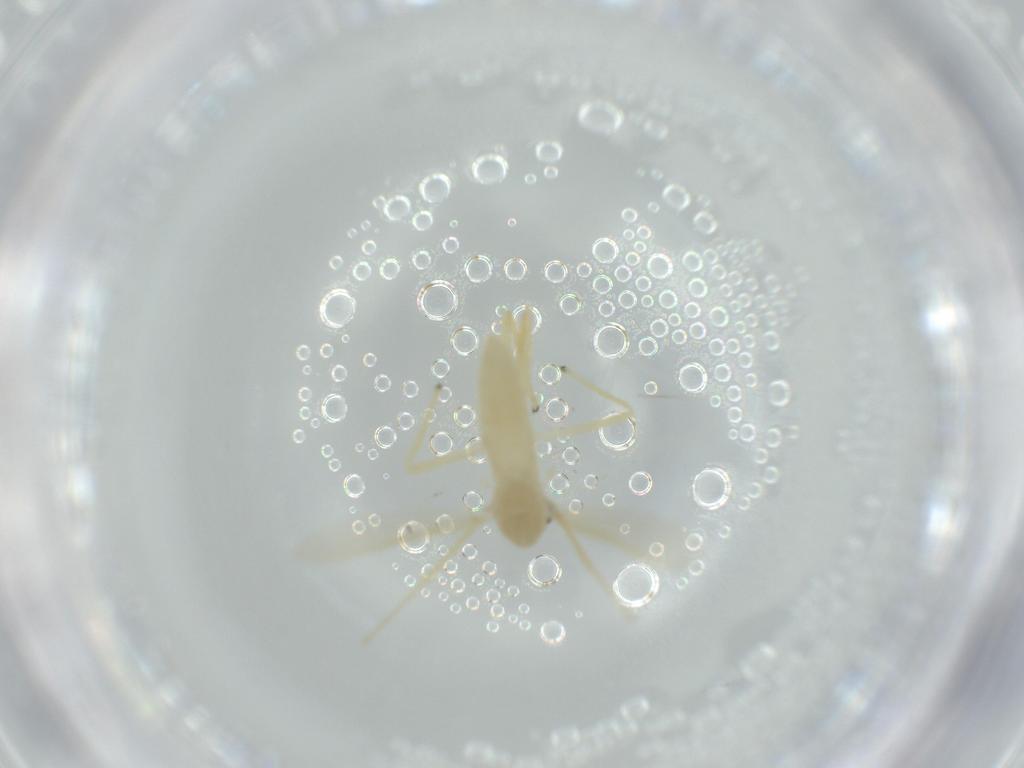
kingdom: Animalia
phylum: Arthropoda
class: Insecta
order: Diptera
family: Chironomidae
